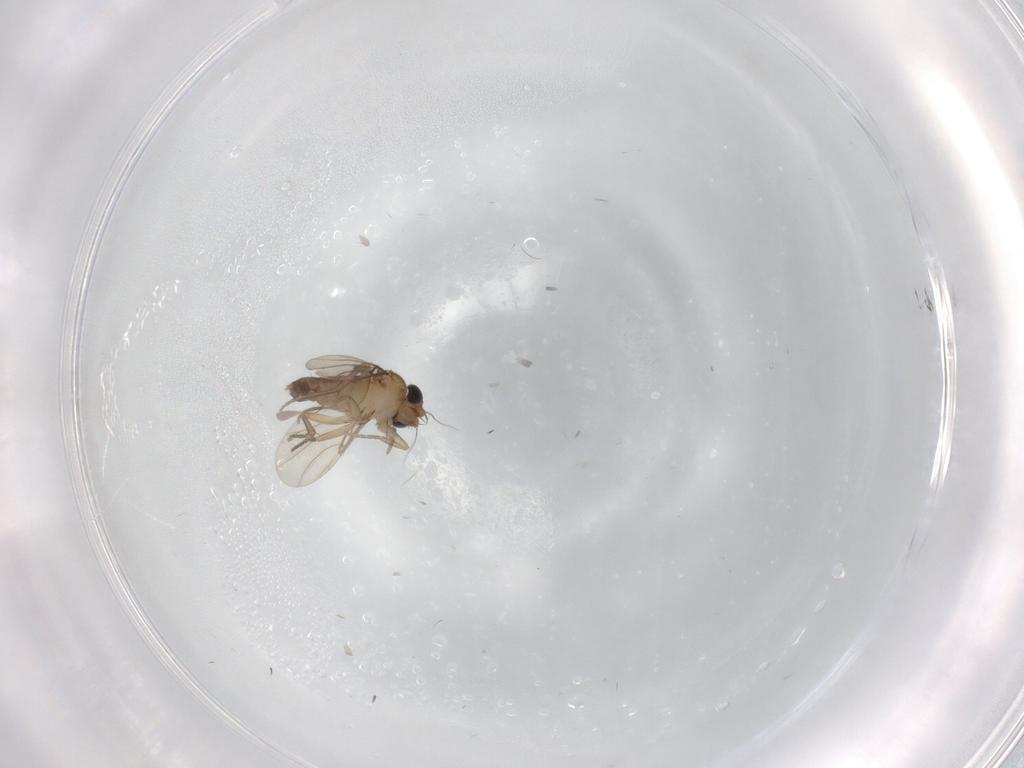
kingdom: Animalia
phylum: Arthropoda
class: Insecta
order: Diptera
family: Phoridae
